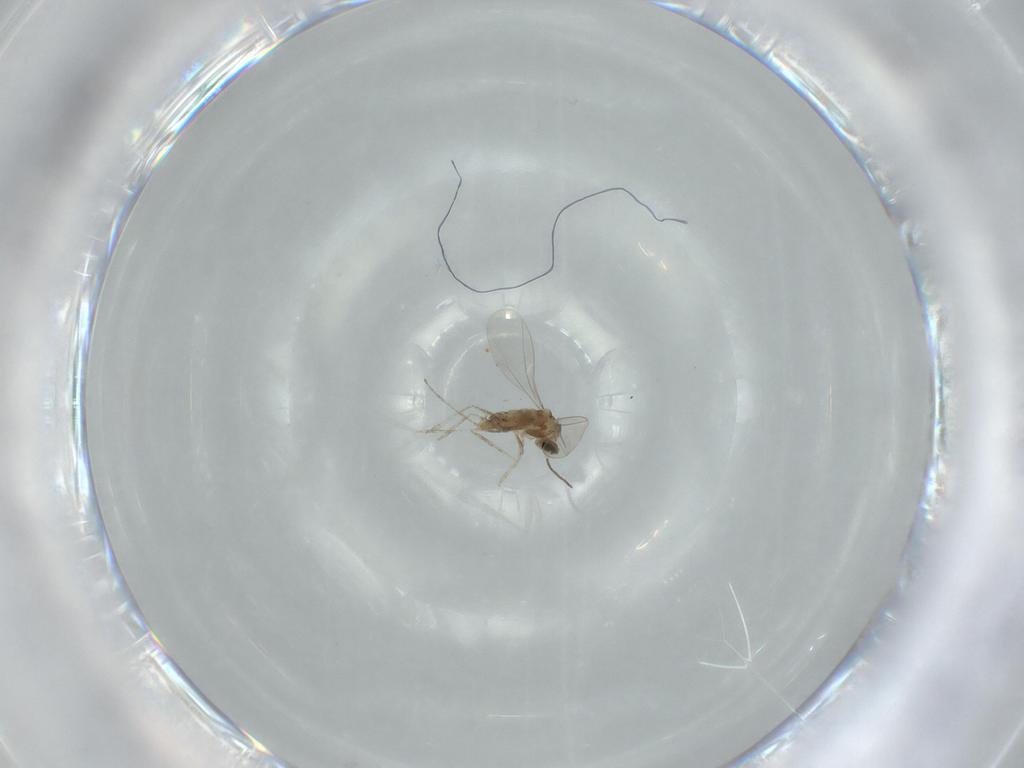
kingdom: Animalia
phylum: Arthropoda
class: Insecta
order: Diptera
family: Cecidomyiidae
